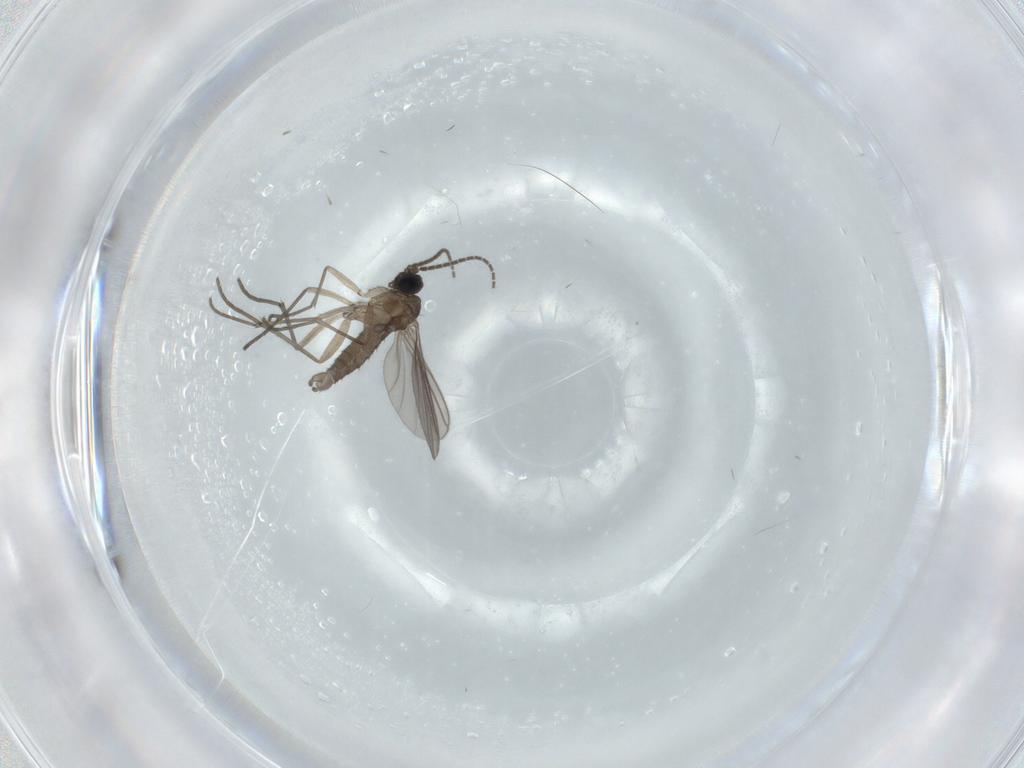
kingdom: Animalia
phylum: Arthropoda
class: Insecta
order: Diptera
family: Sciaridae
